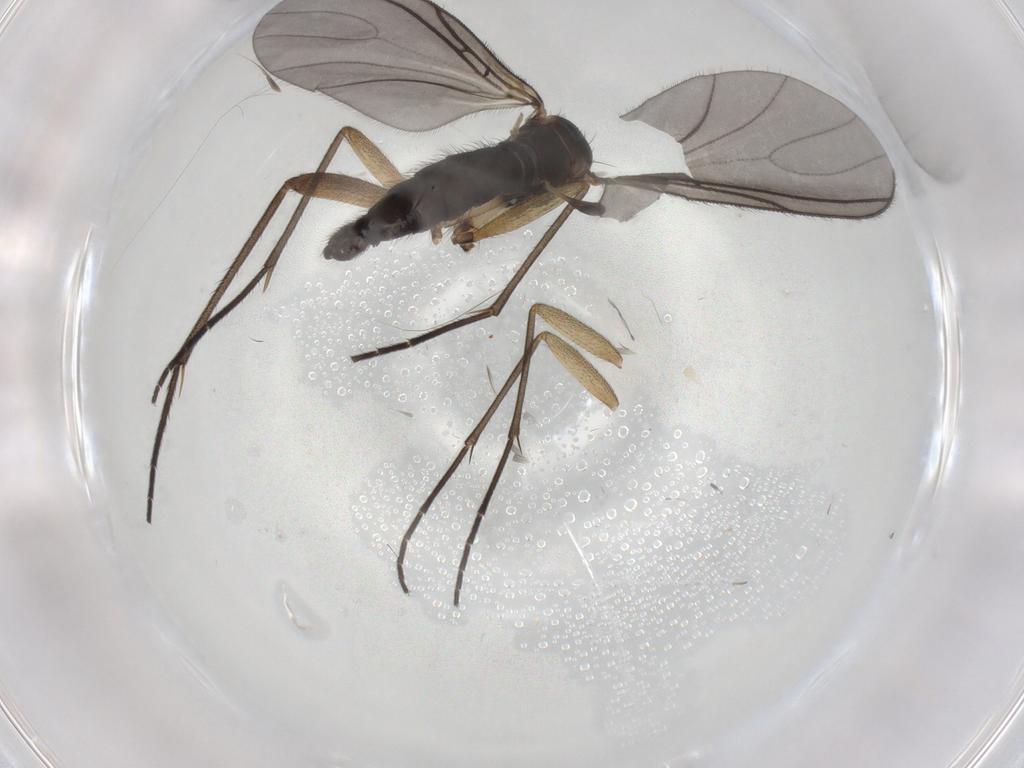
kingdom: Animalia
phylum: Arthropoda
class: Insecta
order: Diptera
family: Sciaridae
